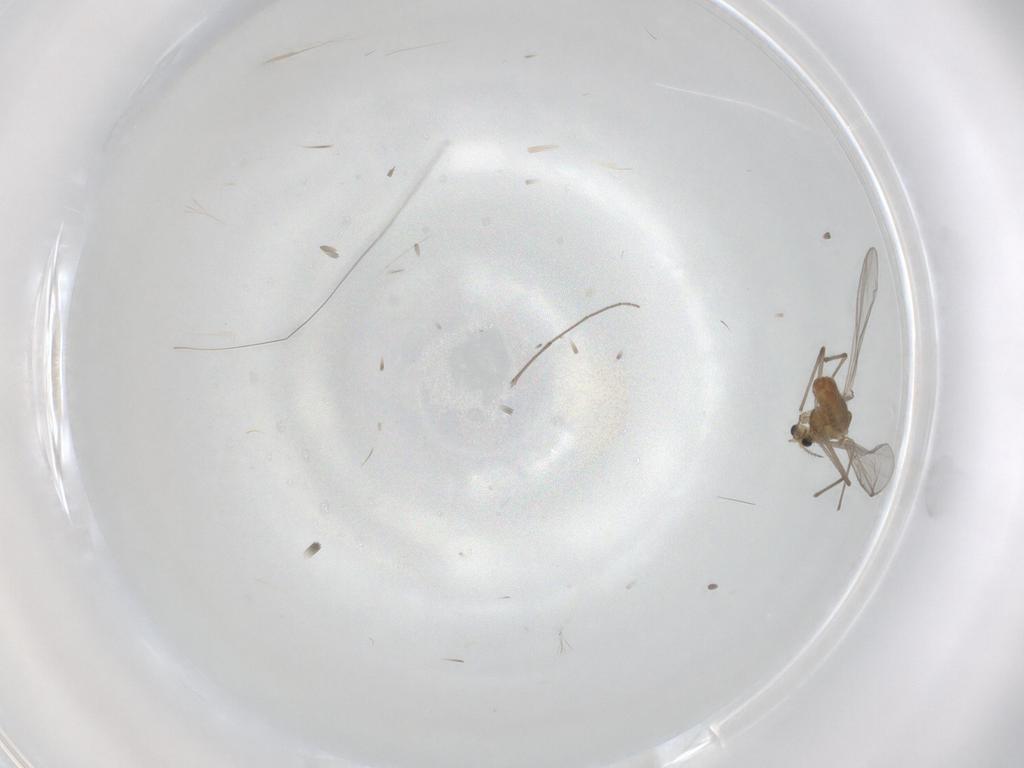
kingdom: Animalia
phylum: Arthropoda
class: Insecta
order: Diptera
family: Chironomidae
